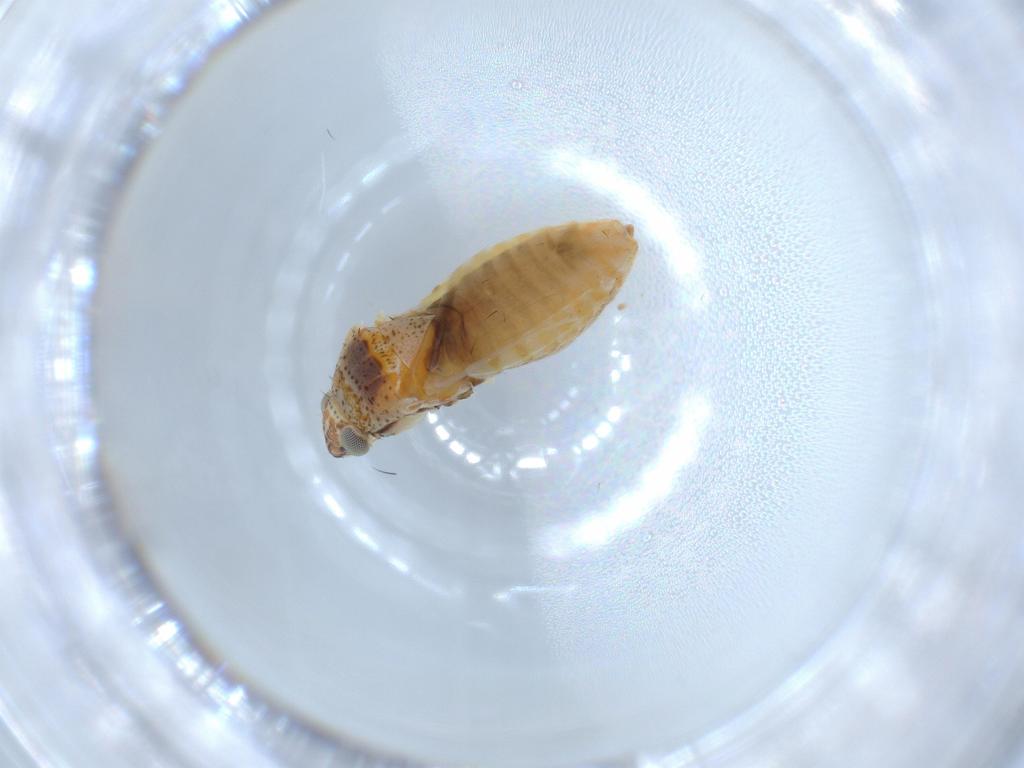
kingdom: Animalia
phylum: Arthropoda
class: Insecta
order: Hemiptera
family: Miridae
